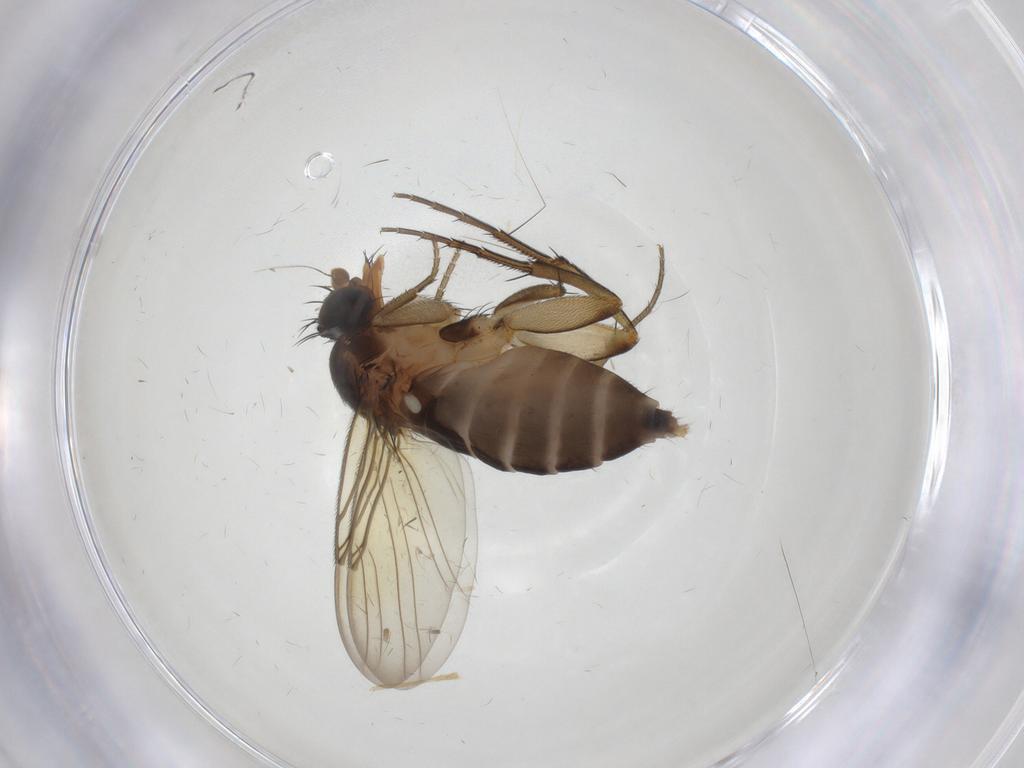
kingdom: Animalia
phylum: Arthropoda
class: Insecta
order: Diptera
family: Phoridae
